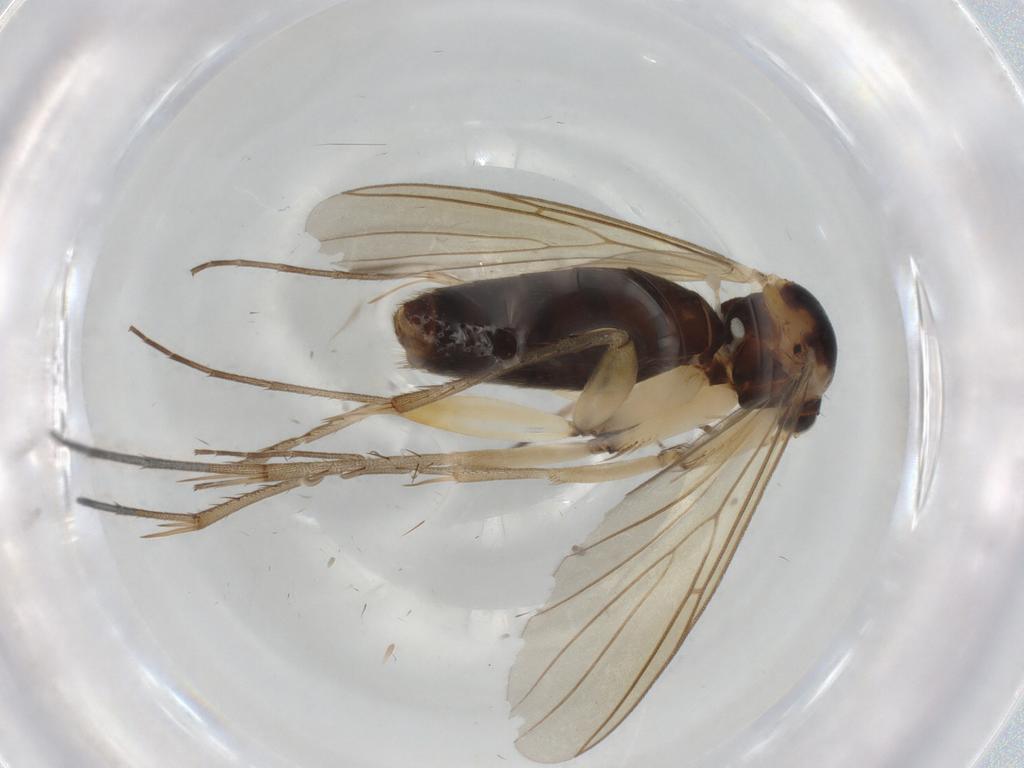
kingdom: Animalia
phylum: Arthropoda
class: Insecta
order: Diptera
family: Mycetophilidae
